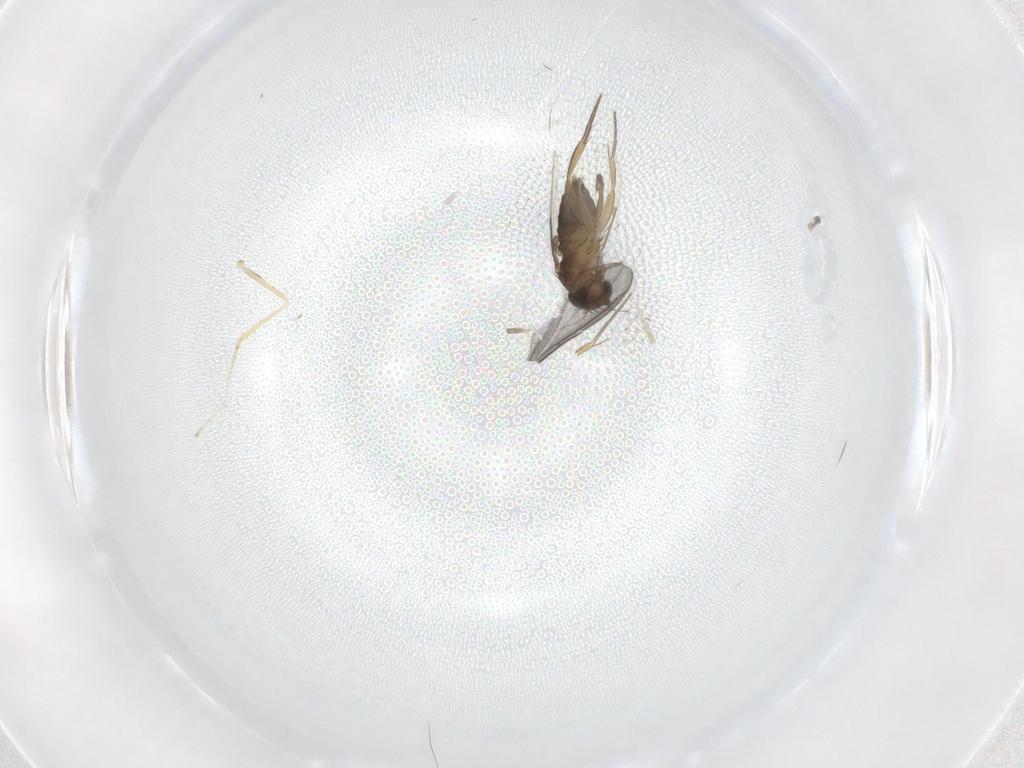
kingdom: Animalia
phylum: Arthropoda
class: Insecta
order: Diptera
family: Phoridae
